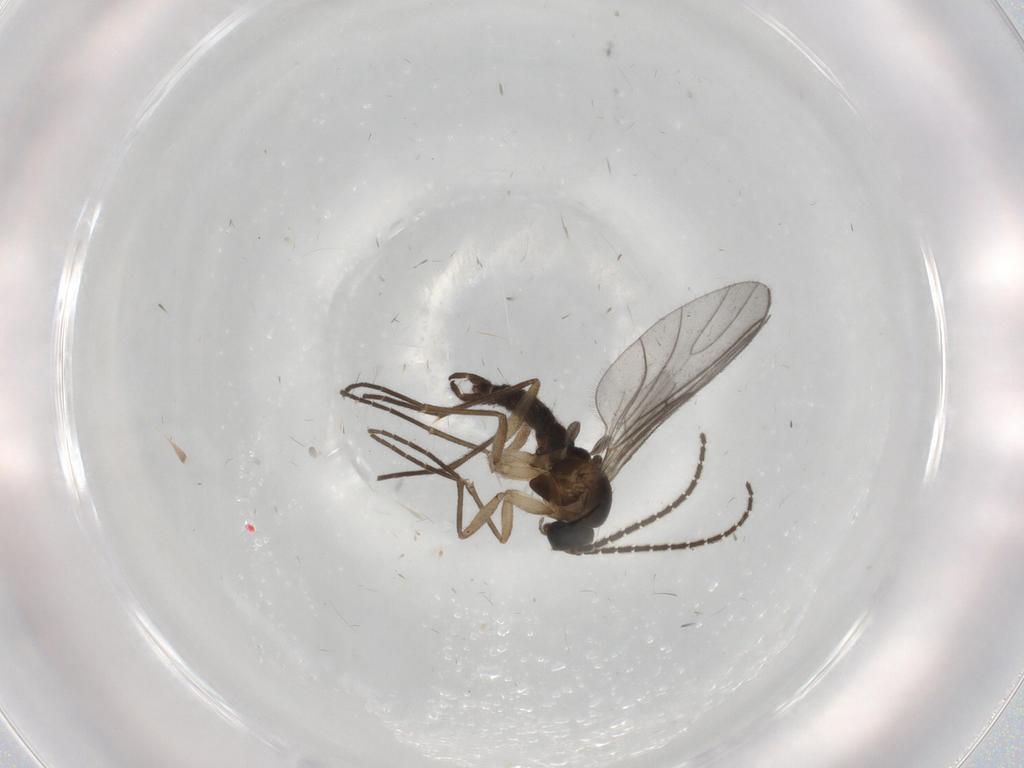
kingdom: Animalia
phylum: Arthropoda
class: Insecta
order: Diptera
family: Sciaridae
